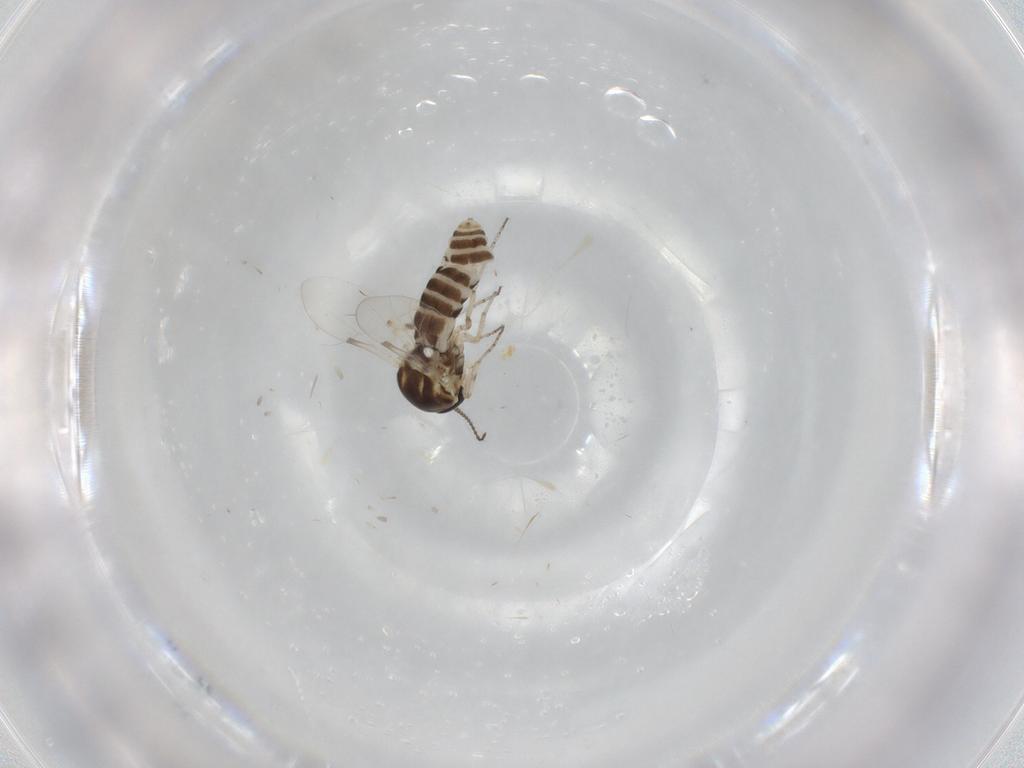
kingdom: Animalia
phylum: Arthropoda
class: Insecta
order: Diptera
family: Ceratopogonidae
